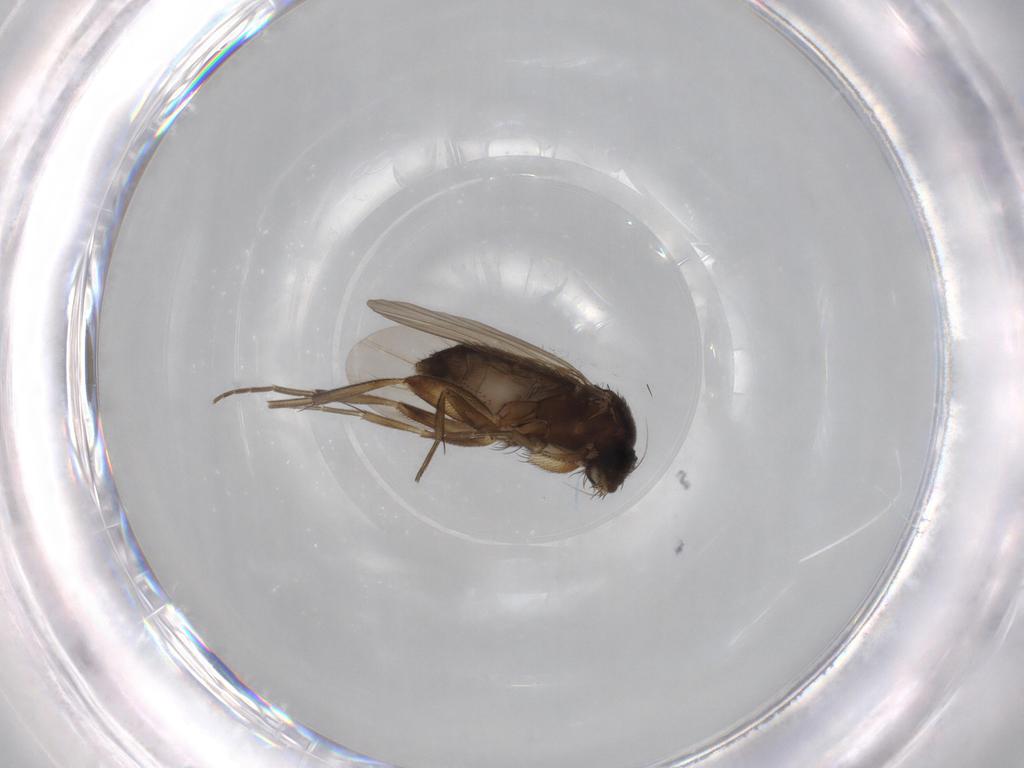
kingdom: Animalia
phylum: Arthropoda
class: Insecta
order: Diptera
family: Phoridae
